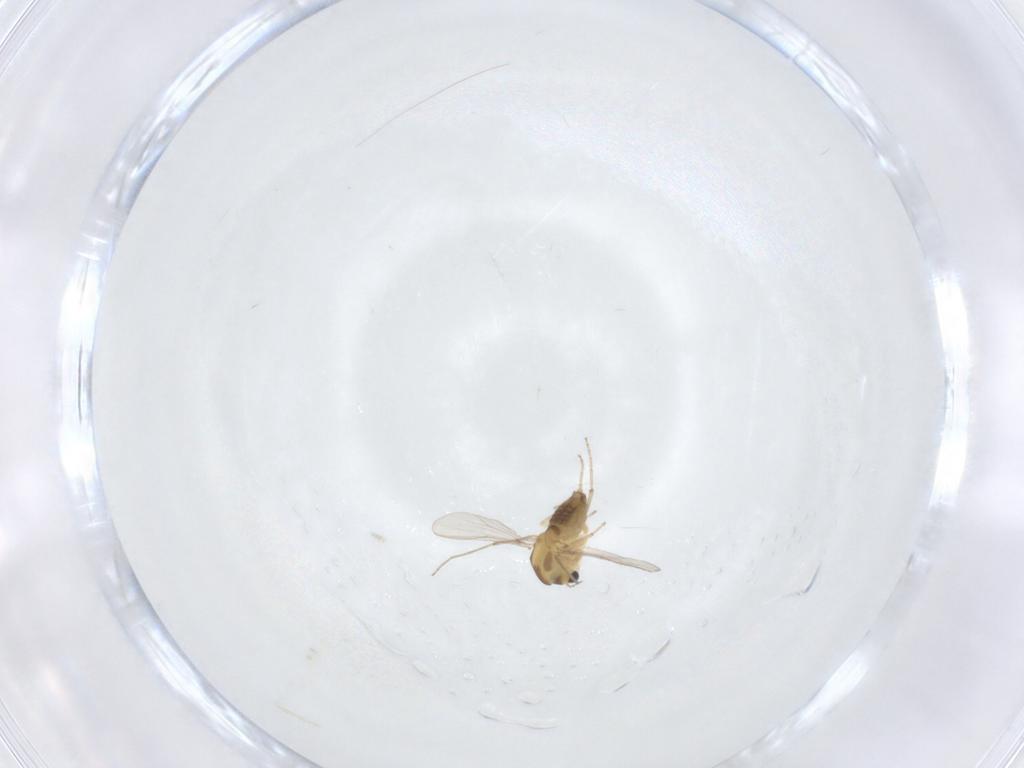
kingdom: Animalia
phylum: Arthropoda
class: Insecta
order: Diptera
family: Chironomidae
